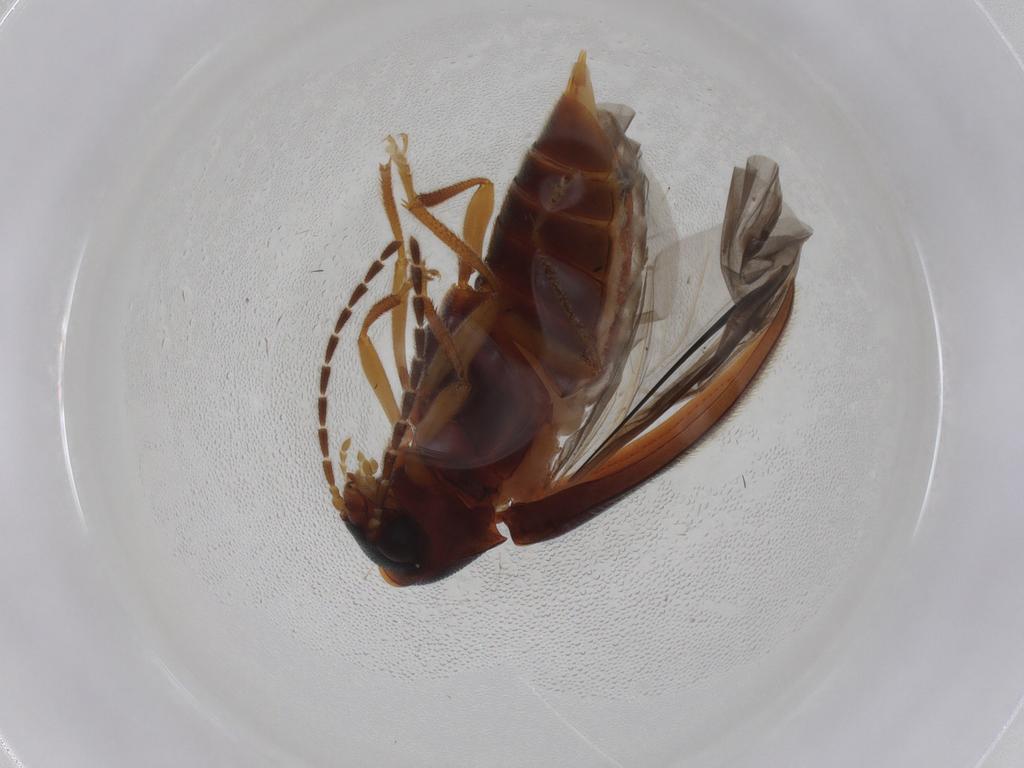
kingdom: Animalia
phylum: Arthropoda
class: Insecta
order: Coleoptera
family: Ptilodactylidae
